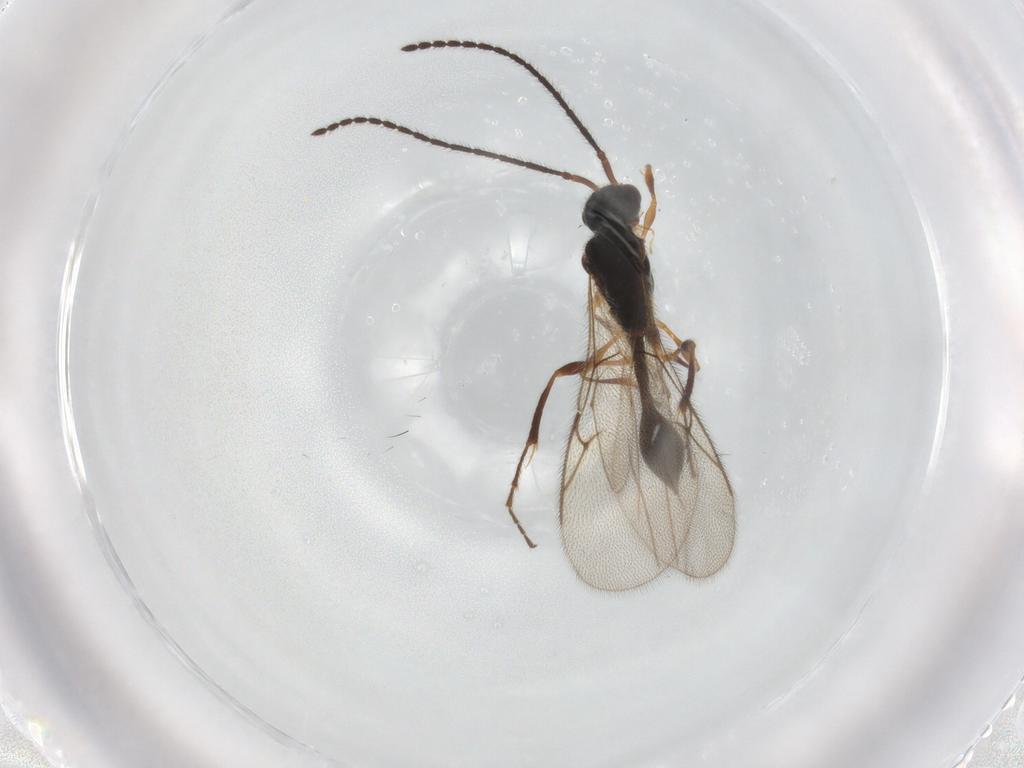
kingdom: Animalia
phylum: Arthropoda
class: Insecta
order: Hymenoptera
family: Diapriidae
